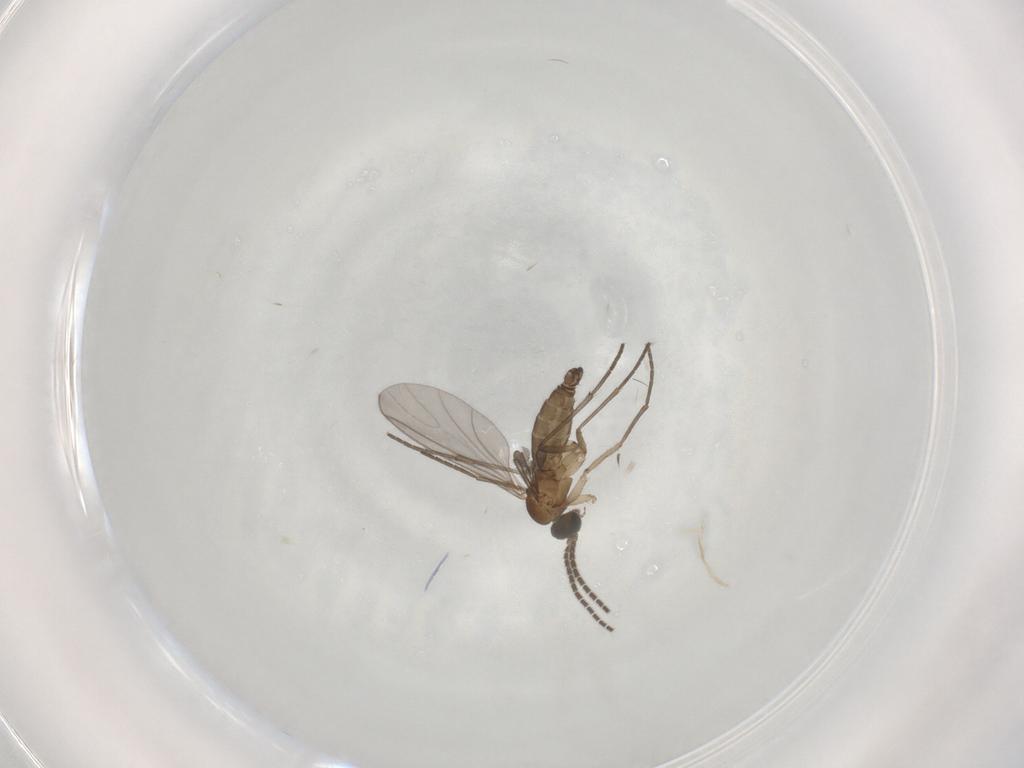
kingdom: Animalia
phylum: Arthropoda
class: Insecta
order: Diptera
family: Sciaridae
